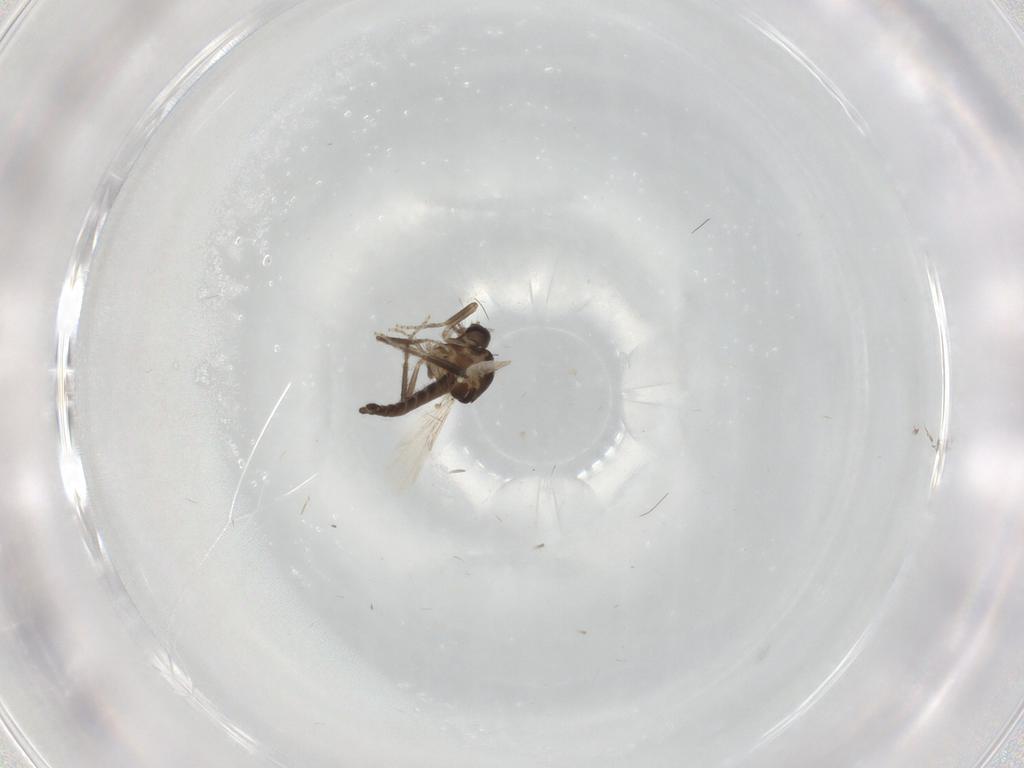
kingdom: Animalia
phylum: Arthropoda
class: Insecta
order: Diptera
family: Ceratopogonidae
